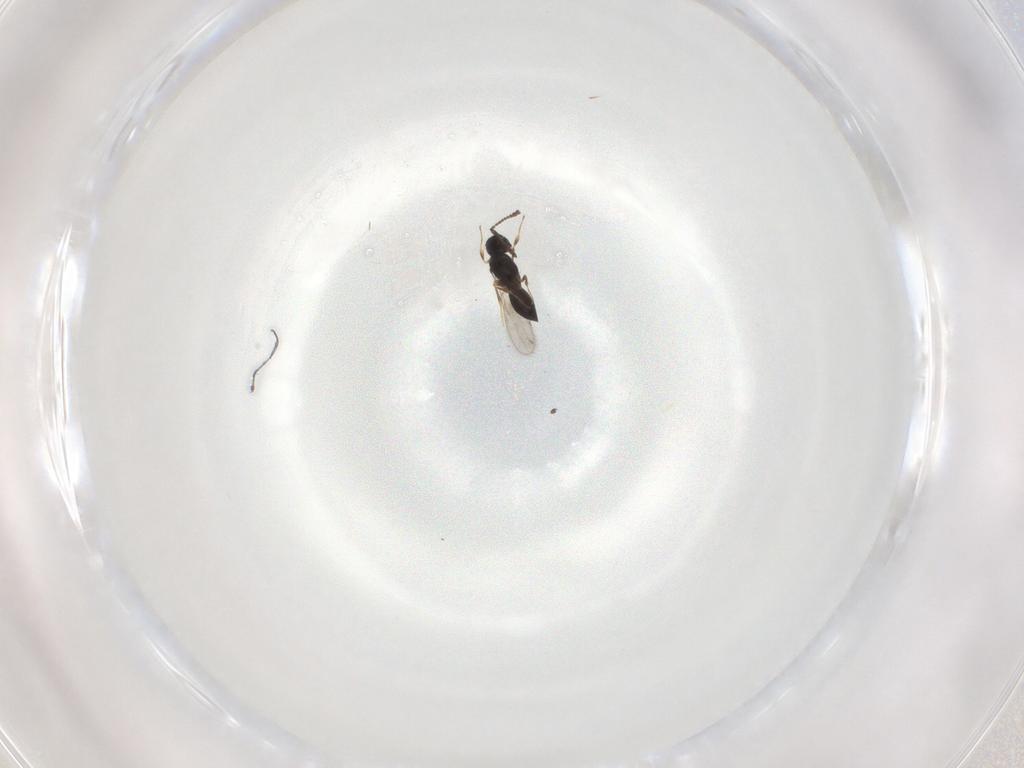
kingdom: Animalia
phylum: Arthropoda
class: Insecta
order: Hymenoptera
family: Scelionidae
